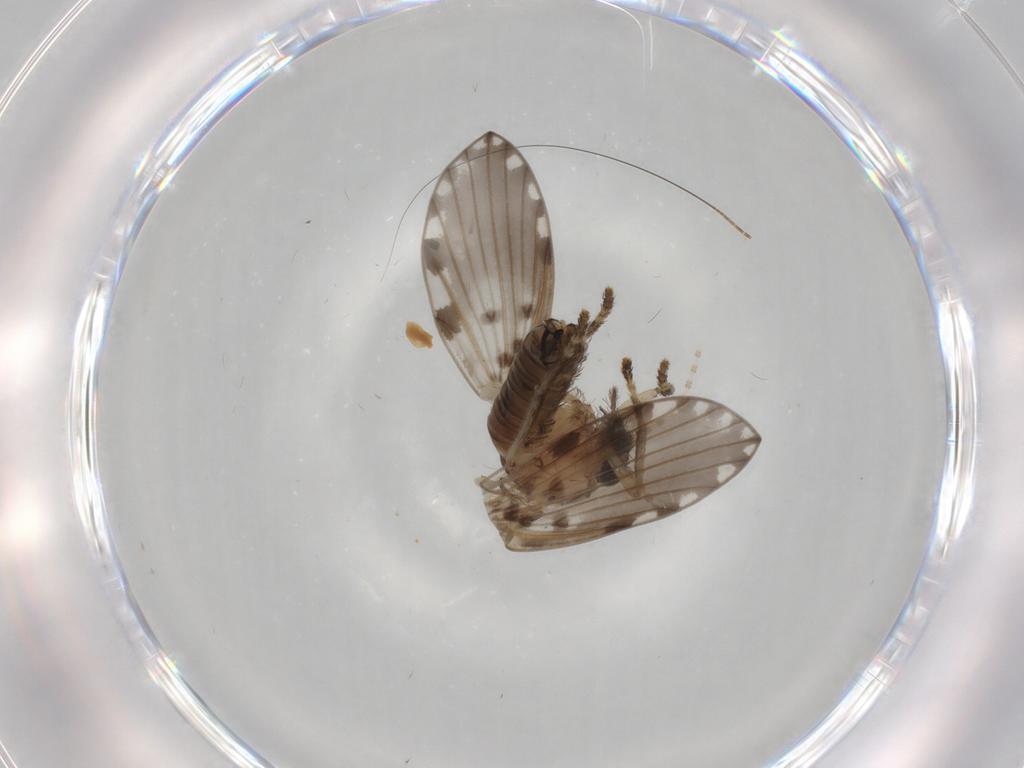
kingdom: Animalia
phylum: Arthropoda
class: Insecta
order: Diptera
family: Psychodidae
